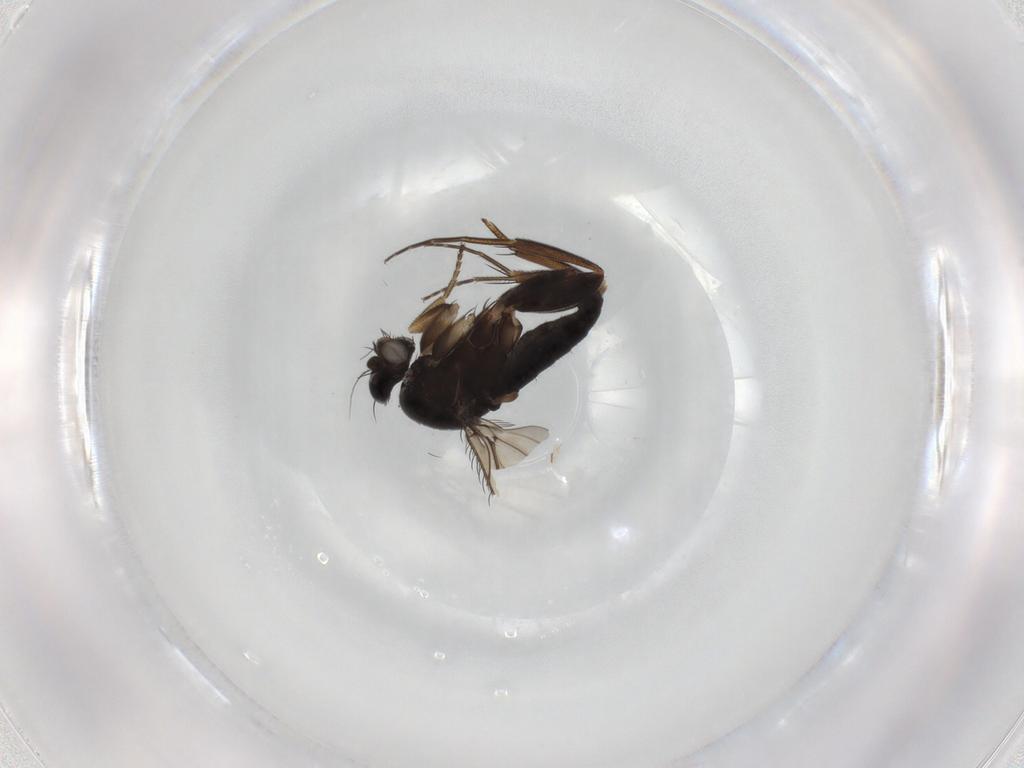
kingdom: Animalia
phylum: Arthropoda
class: Insecta
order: Diptera
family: Phoridae
